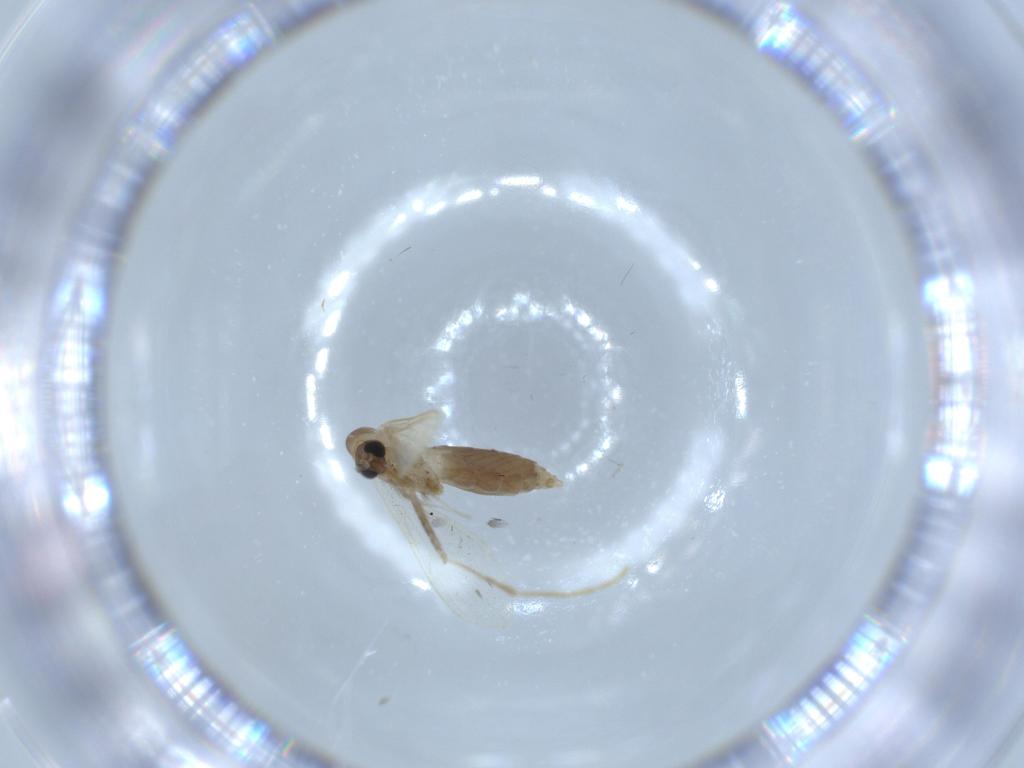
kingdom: Animalia
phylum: Arthropoda
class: Insecta
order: Diptera
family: Psychodidae
